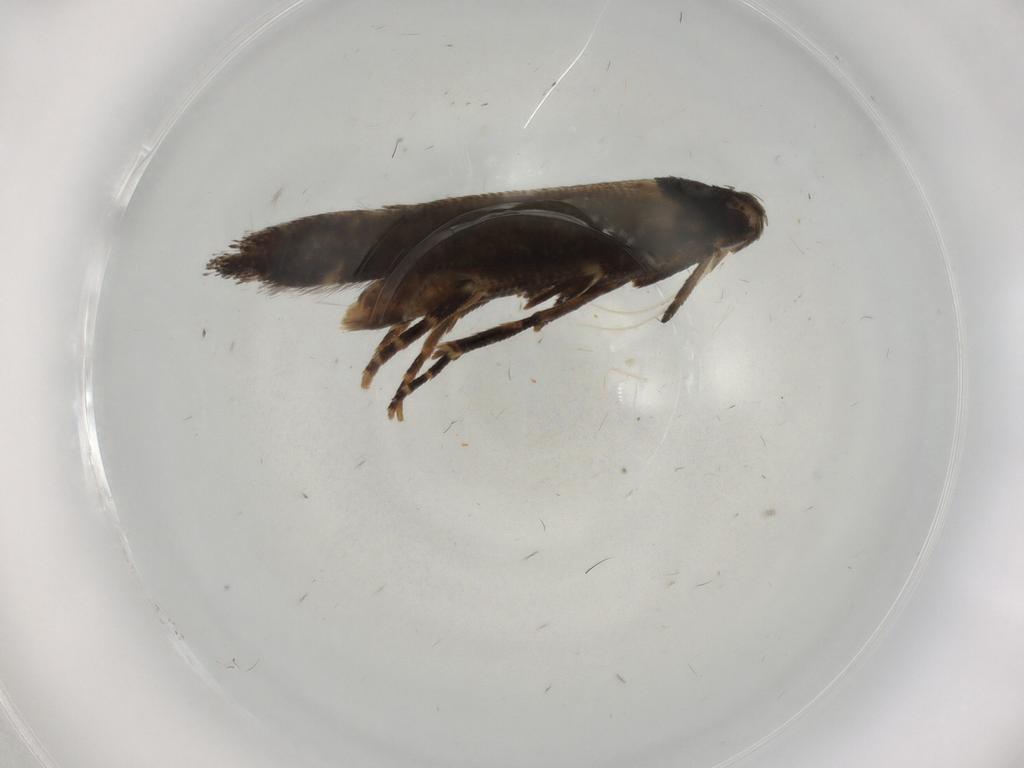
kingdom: Animalia
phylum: Arthropoda
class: Insecta
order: Lepidoptera
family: Cosmopterigidae
